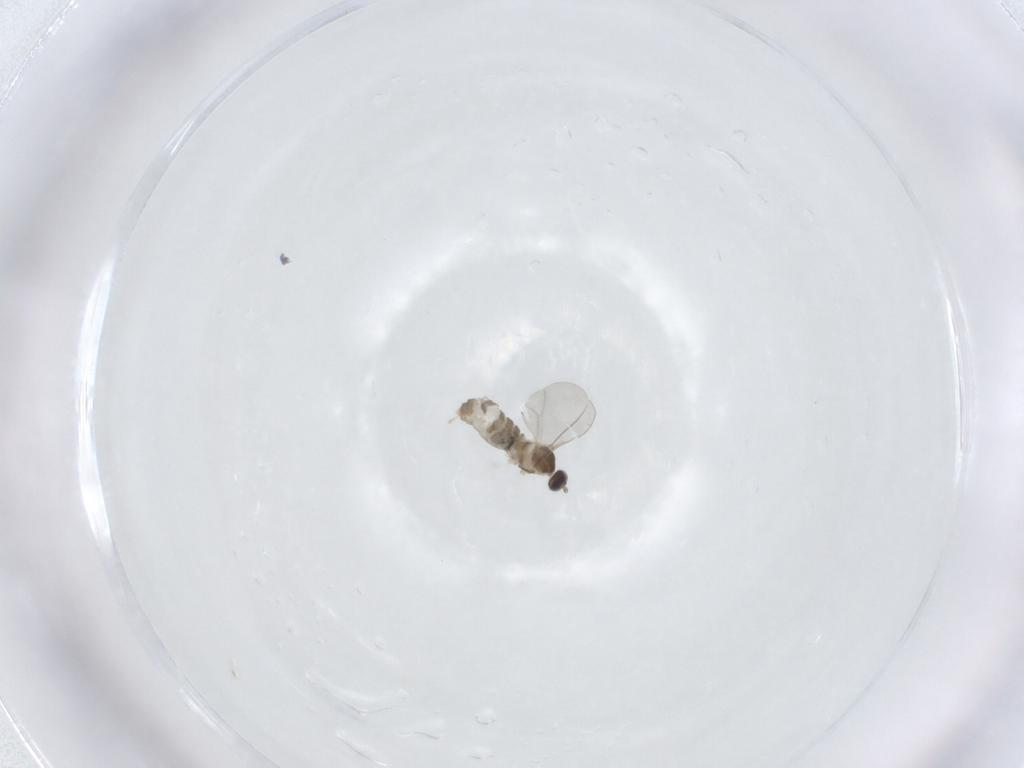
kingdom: Animalia
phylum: Arthropoda
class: Insecta
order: Diptera
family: Cecidomyiidae
